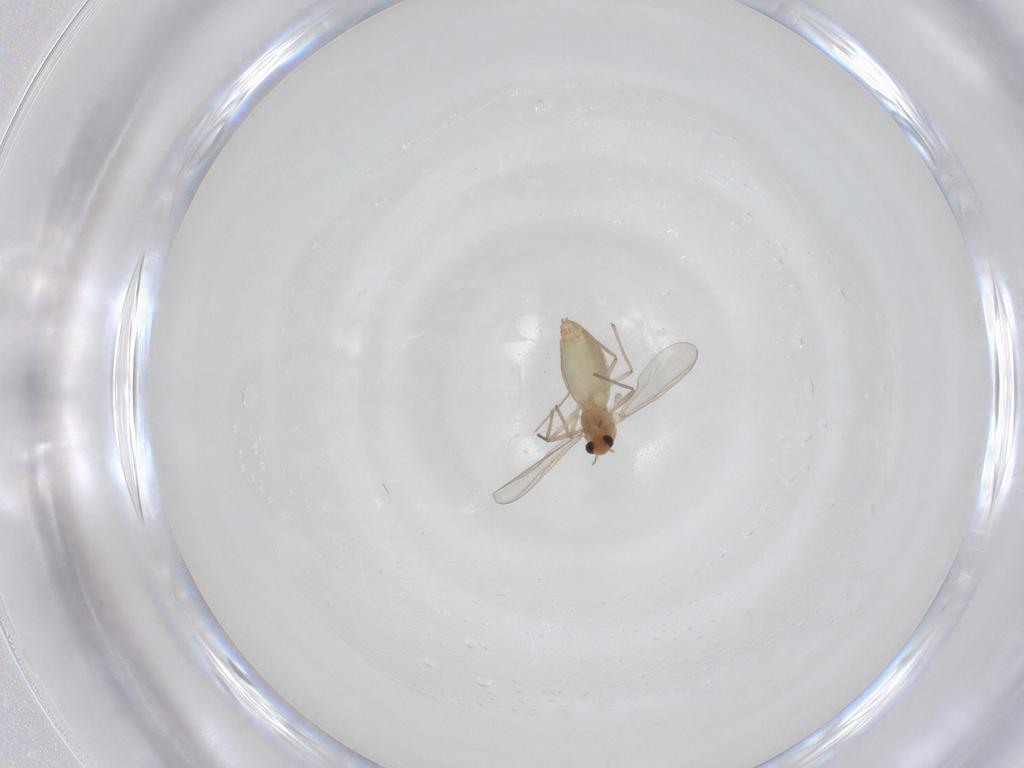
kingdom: Animalia
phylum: Arthropoda
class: Insecta
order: Diptera
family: Chironomidae
